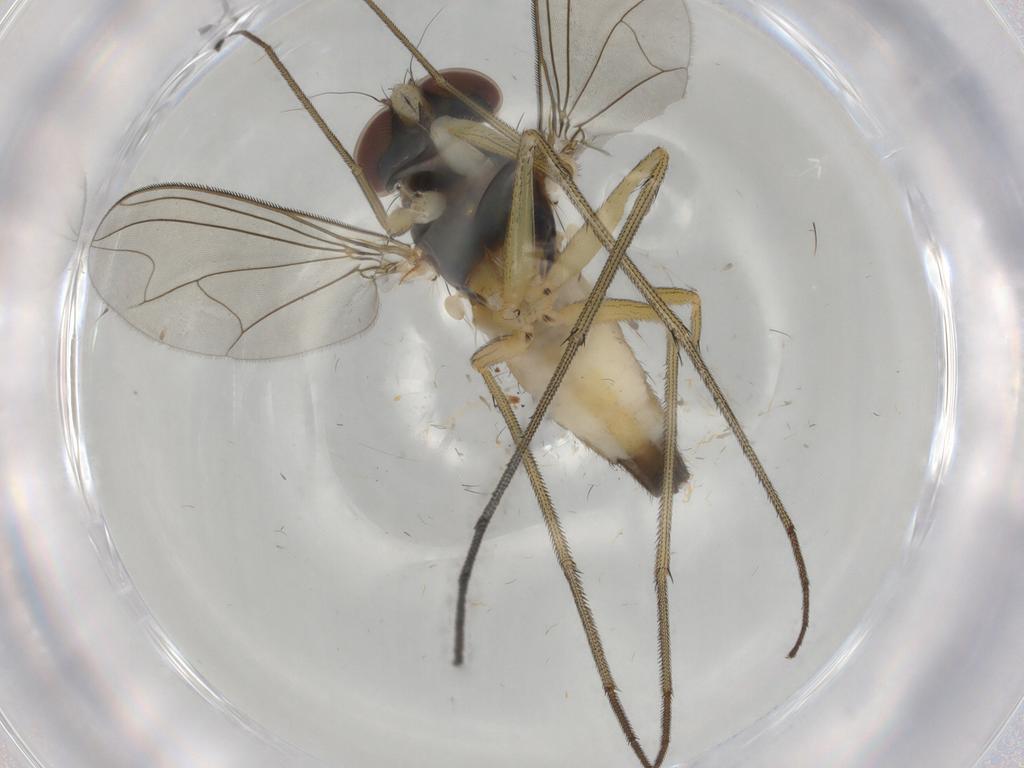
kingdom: Animalia
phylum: Arthropoda
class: Insecta
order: Diptera
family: Dolichopodidae
